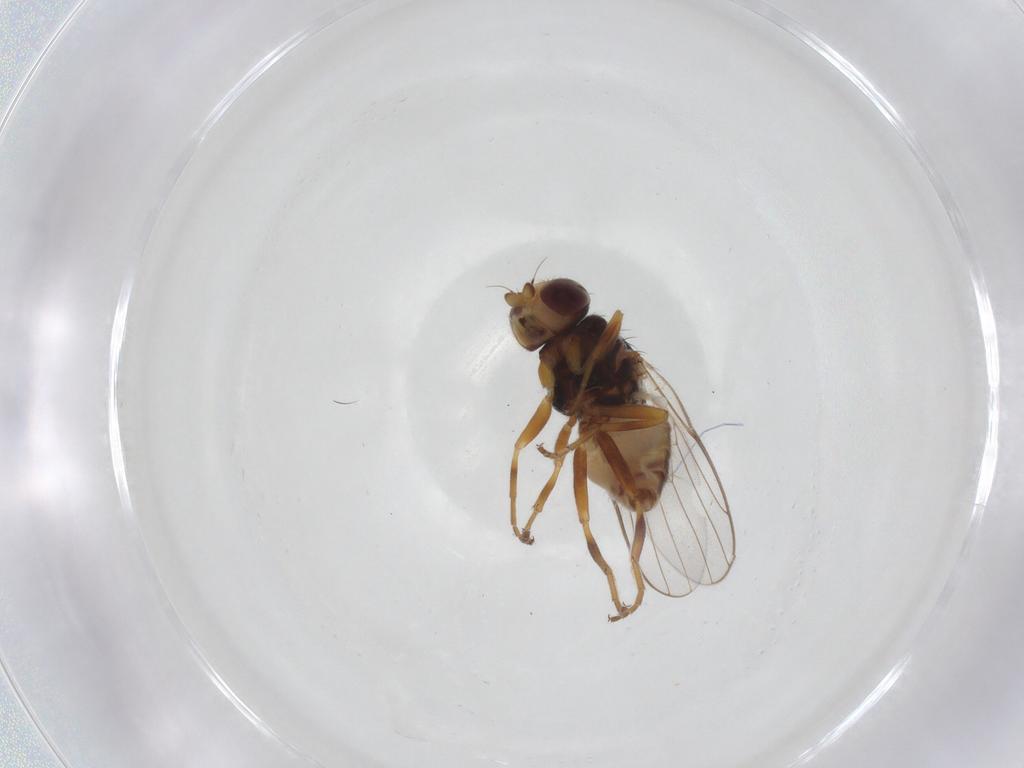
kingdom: Animalia
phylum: Arthropoda
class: Insecta
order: Diptera
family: Chloropidae
